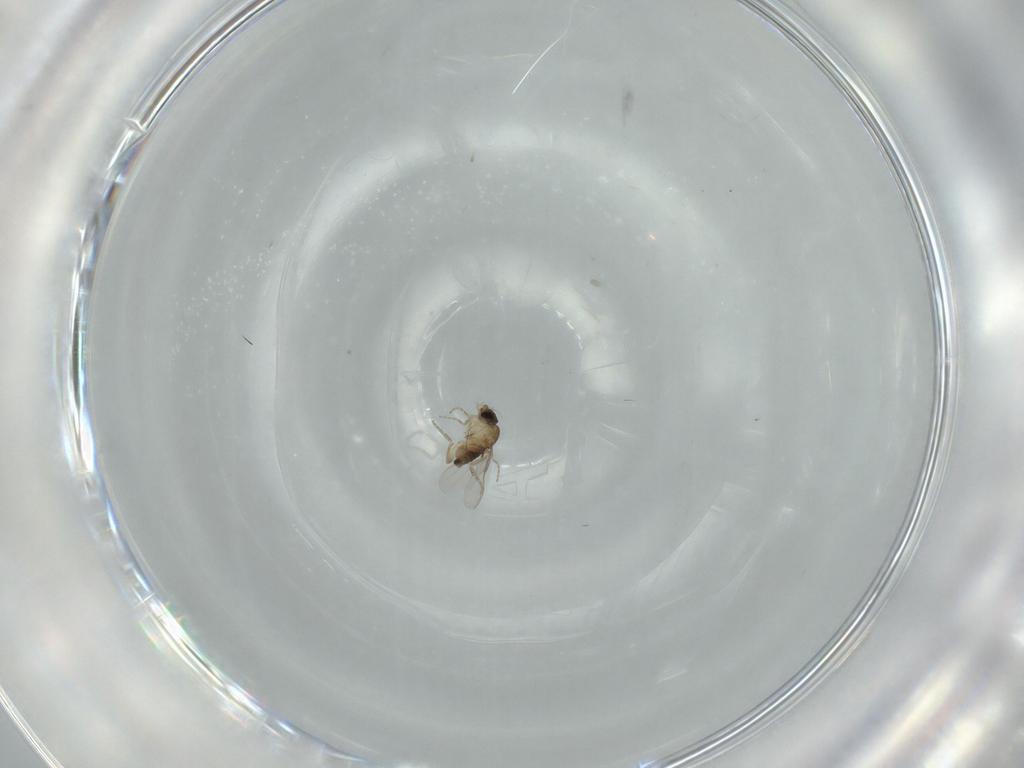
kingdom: Animalia
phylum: Arthropoda
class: Insecta
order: Diptera
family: Phoridae
